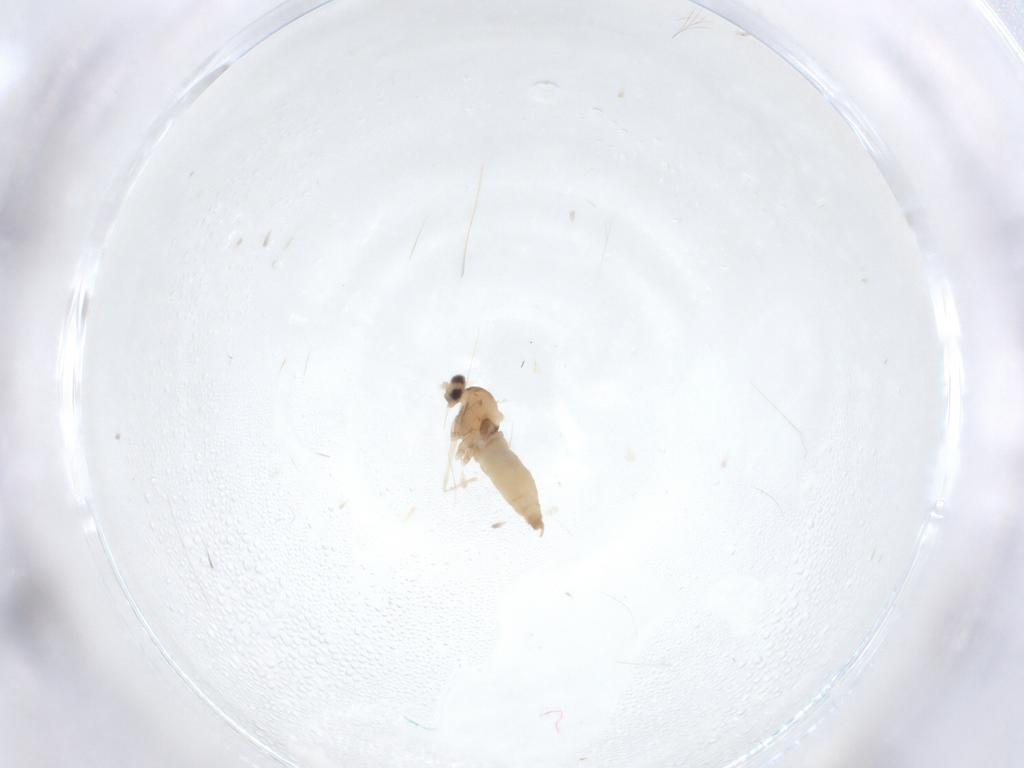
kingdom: Animalia
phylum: Arthropoda
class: Insecta
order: Diptera
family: Cecidomyiidae
